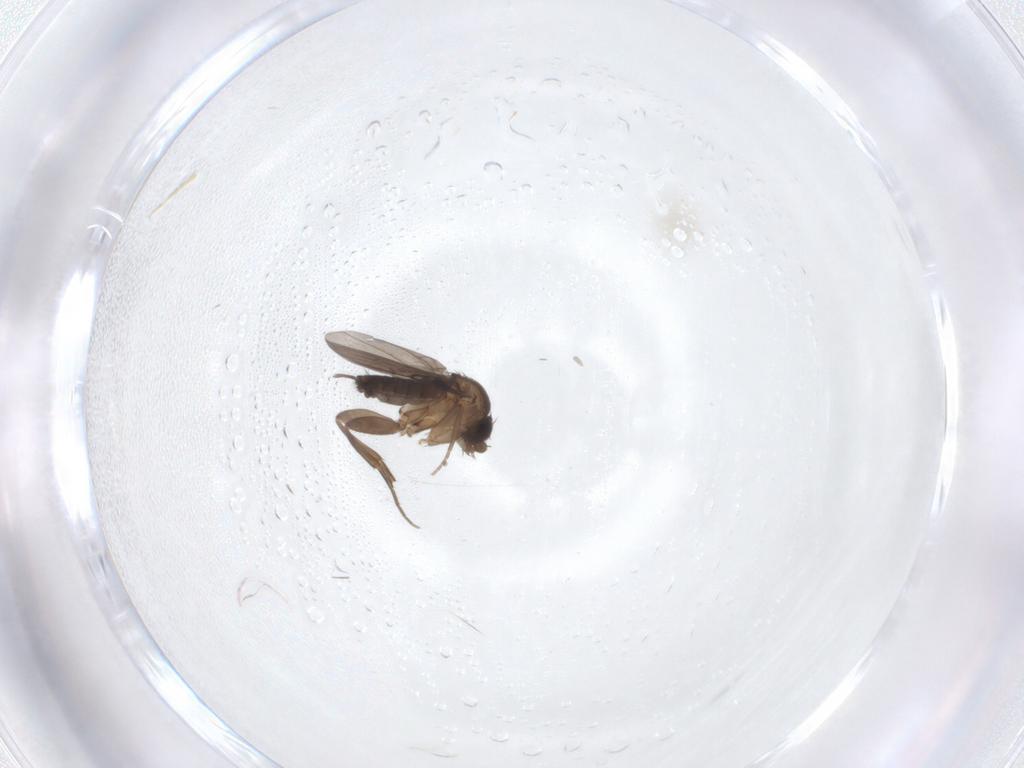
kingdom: Animalia
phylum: Arthropoda
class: Insecta
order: Diptera
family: Phoridae
